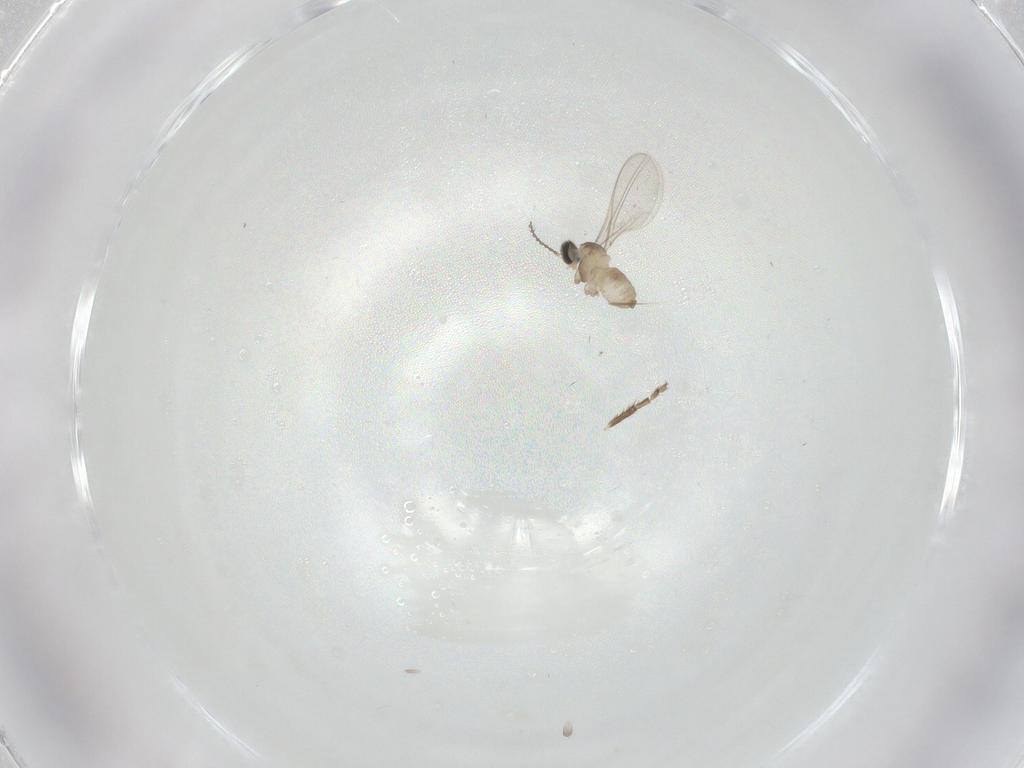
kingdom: Animalia
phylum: Arthropoda
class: Insecta
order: Diptera
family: Cecidomyiidae
